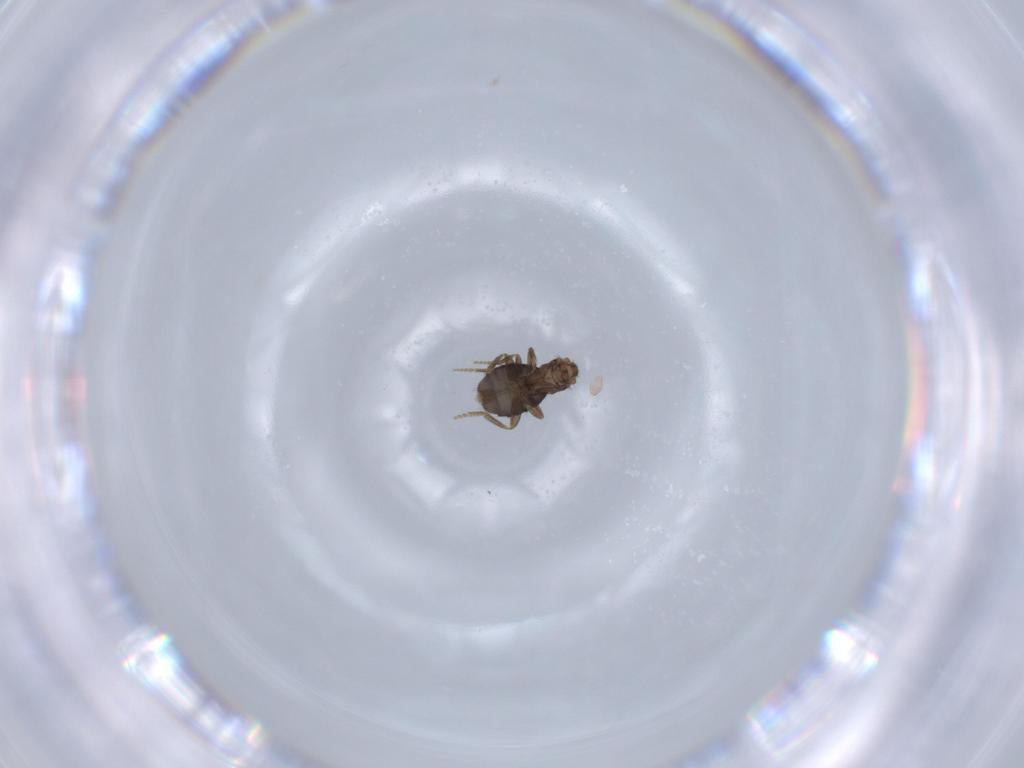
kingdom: Animalia
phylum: Arthropoda
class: Insecta
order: Diptera
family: Phoridae
